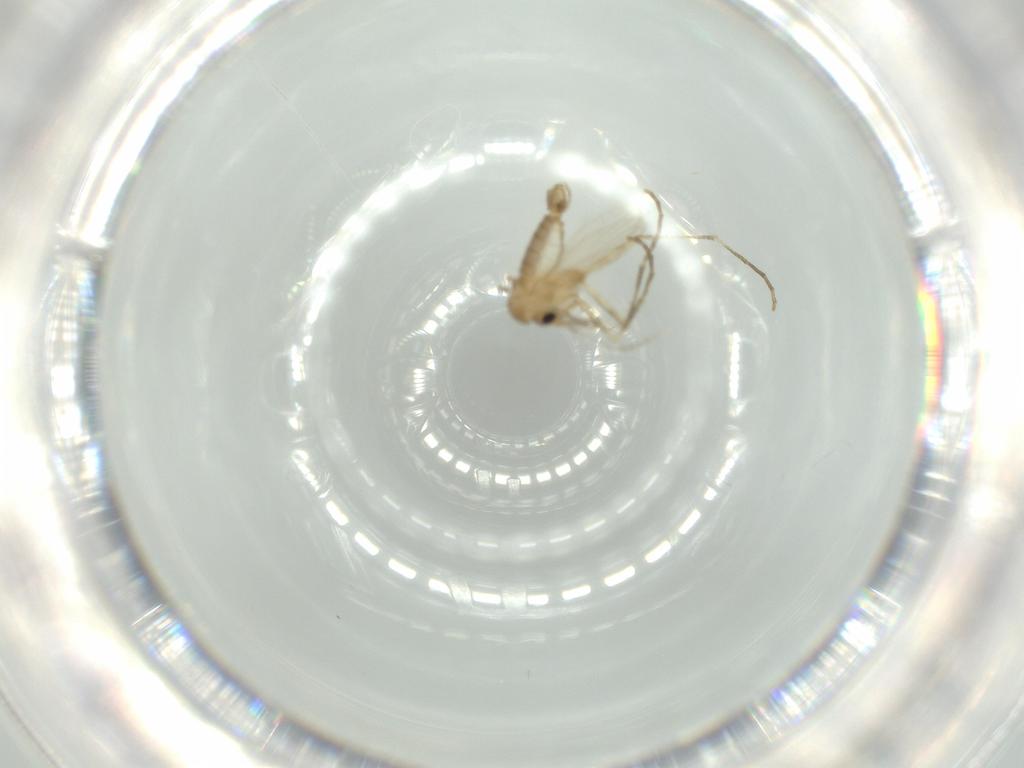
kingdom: Animalia
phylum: Arthropoda
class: Insecta
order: Diptera
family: Psychodidae
